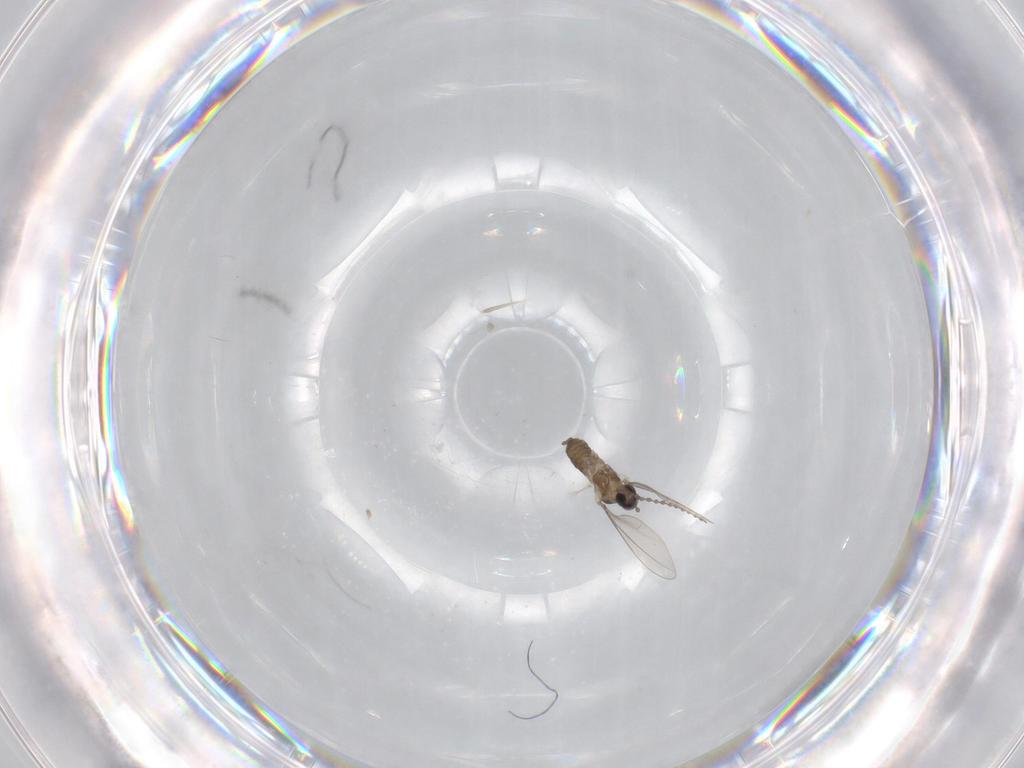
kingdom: Animalia
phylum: Arthropoda
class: Insecta
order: Diptera
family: Cecidomyiidae
